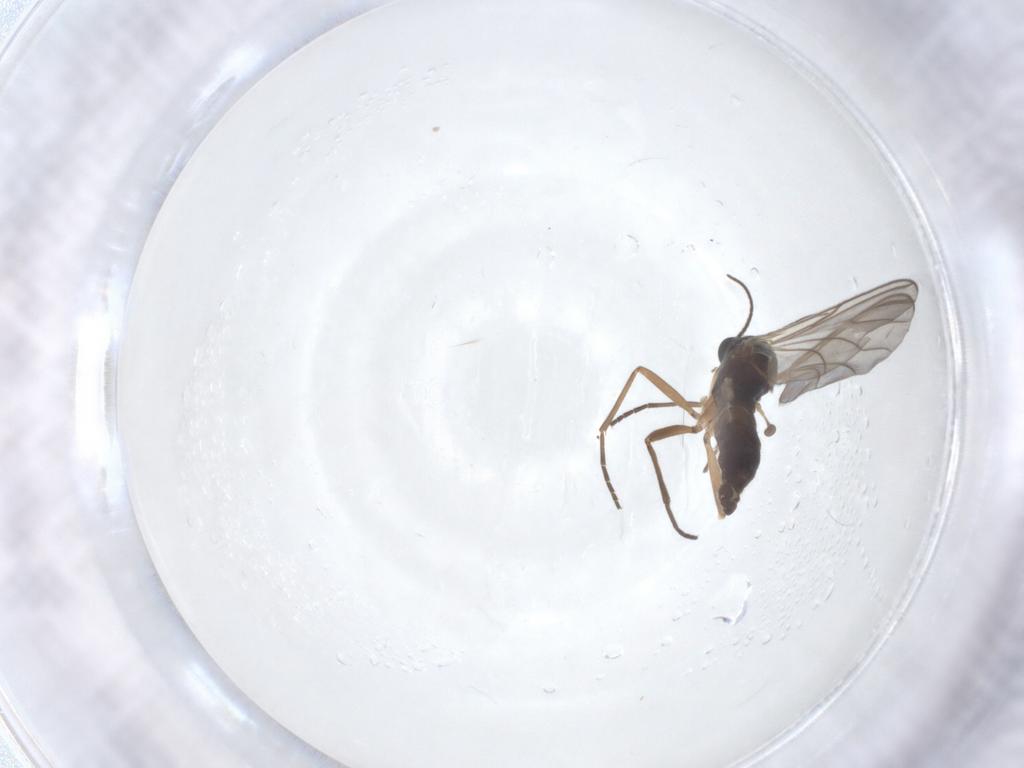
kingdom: Animalia
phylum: Arthropoda
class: Insecta
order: Diptera
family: Sciaridae
